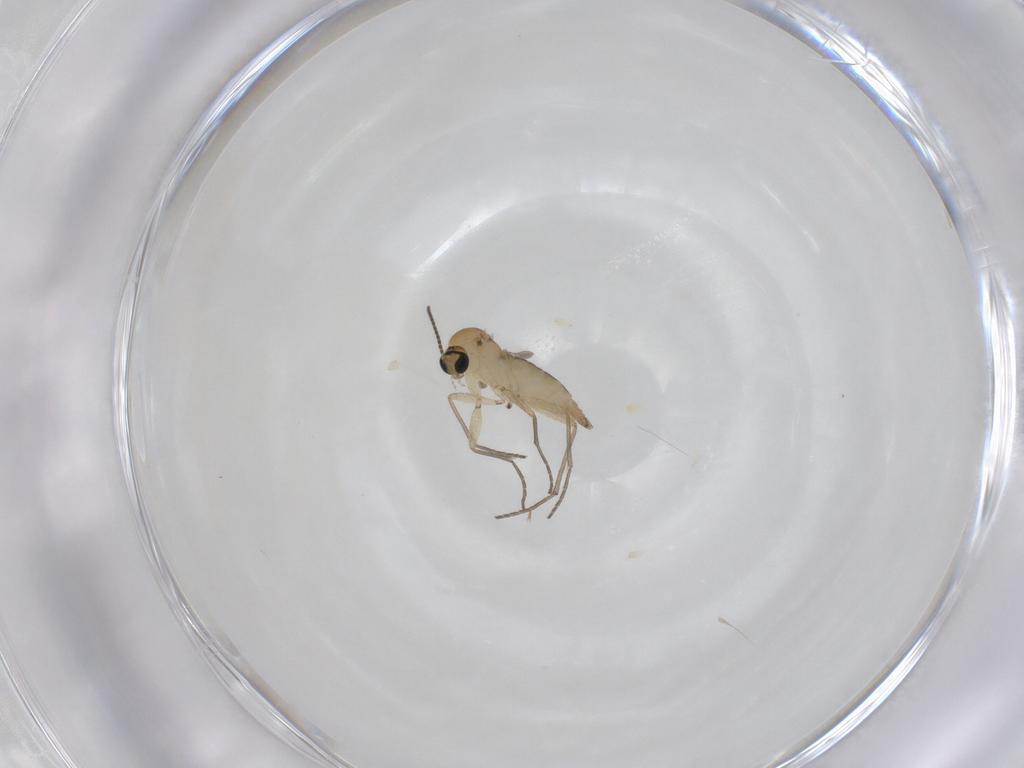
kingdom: Animalia
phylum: Arthropoda
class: Insecta
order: Diptera
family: Sciaridae
